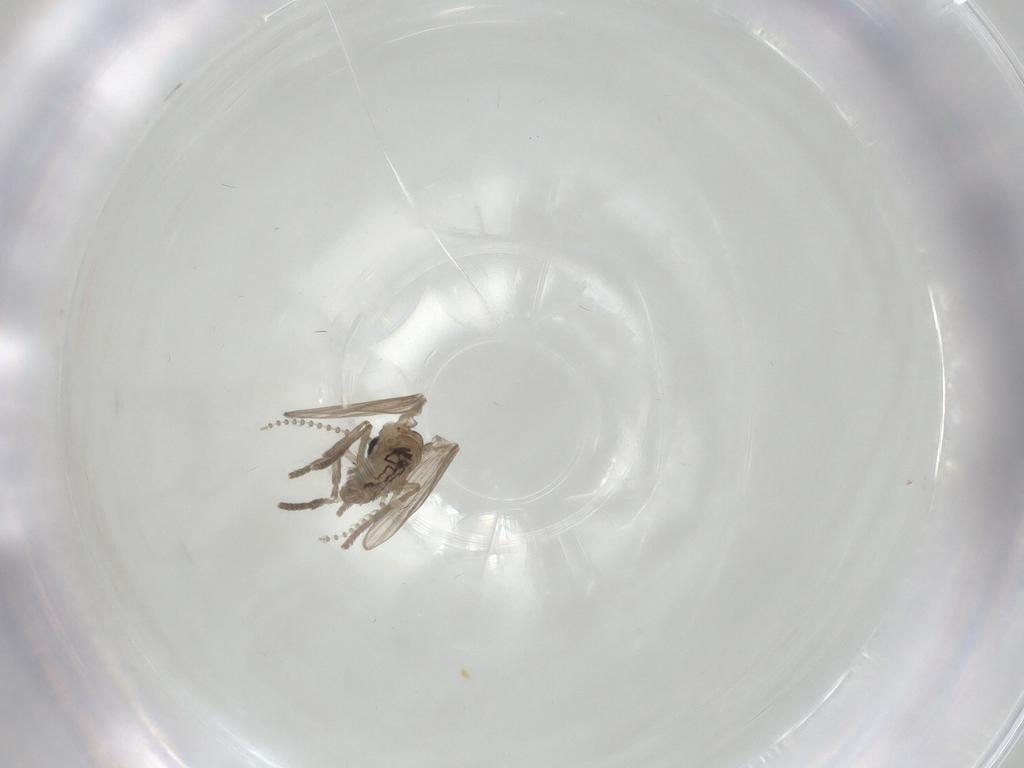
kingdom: Animalia
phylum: Arthropoda
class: Insecta
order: Diptera
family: Psychodidae
